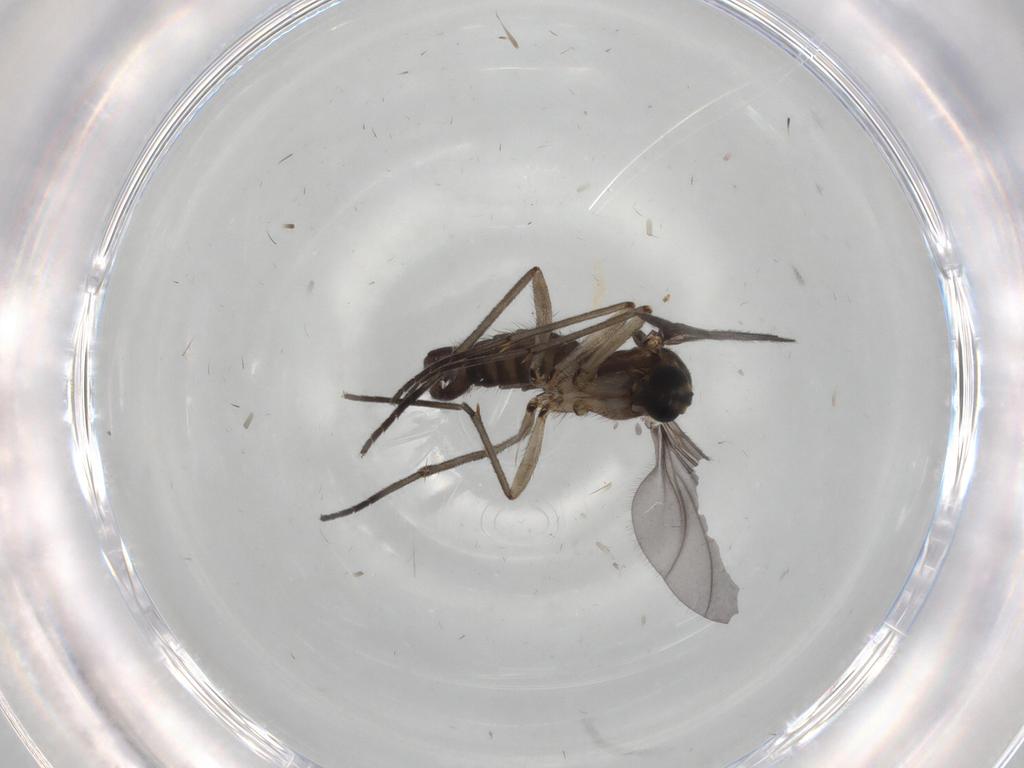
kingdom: Animalia
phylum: Arthropoda
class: Insecta
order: Diptera
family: Sciaridae
